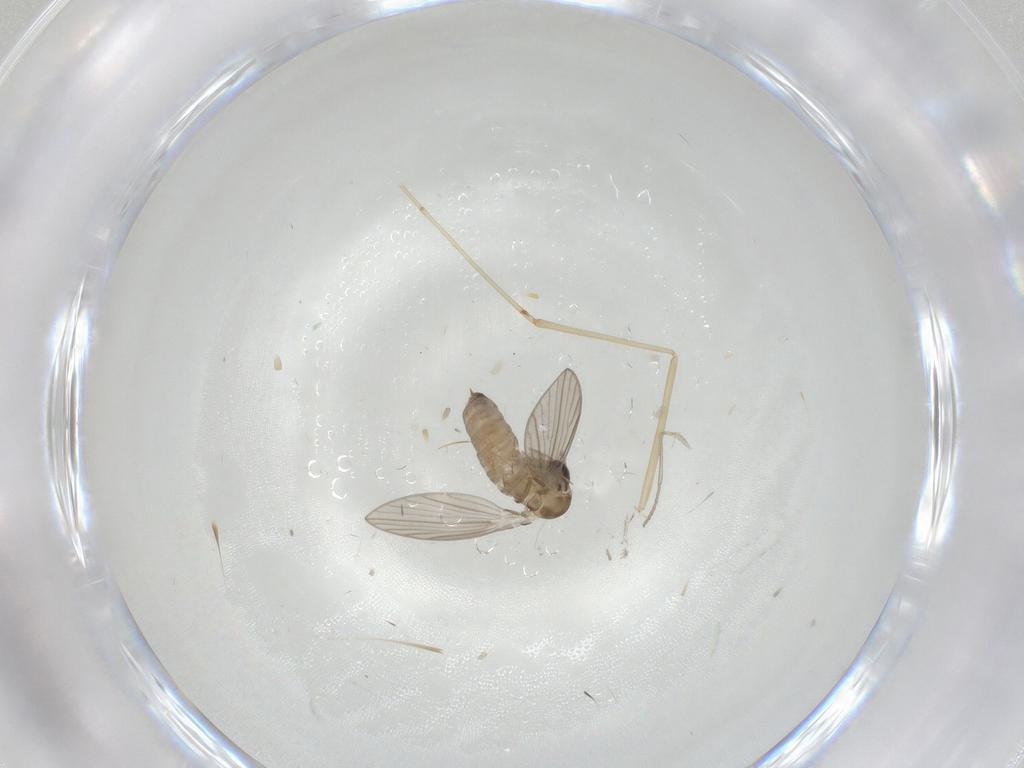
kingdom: Animalia
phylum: Arthropoda
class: Insecta
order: Diptera
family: Psychodidae
